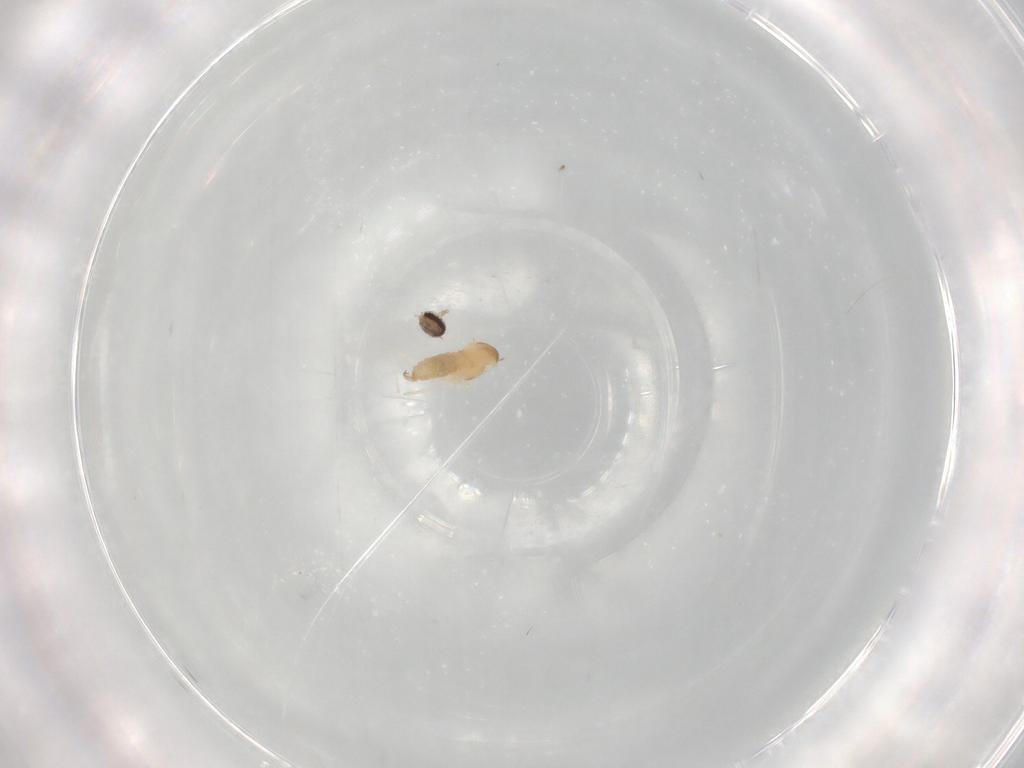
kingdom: Animalia
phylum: Arthropoda
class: Insecta
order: Diptera
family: Cecidomyiidae
